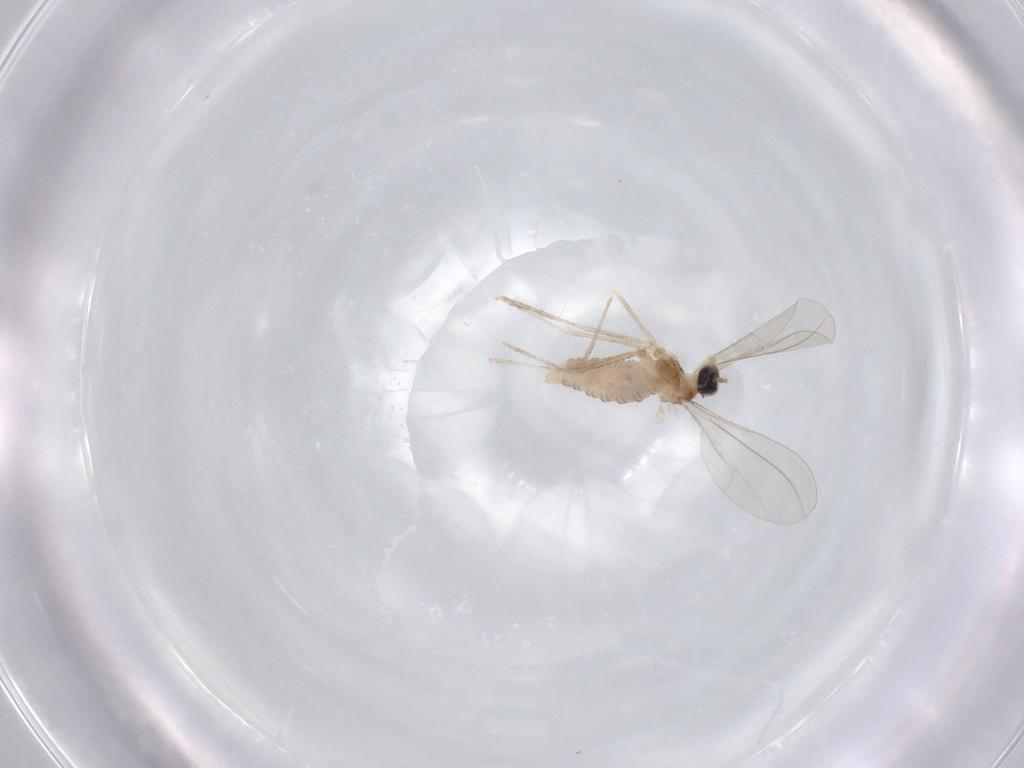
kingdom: Animalia
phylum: Arthropoda
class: Insecta
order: Diptera
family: Cecidomyiidae
